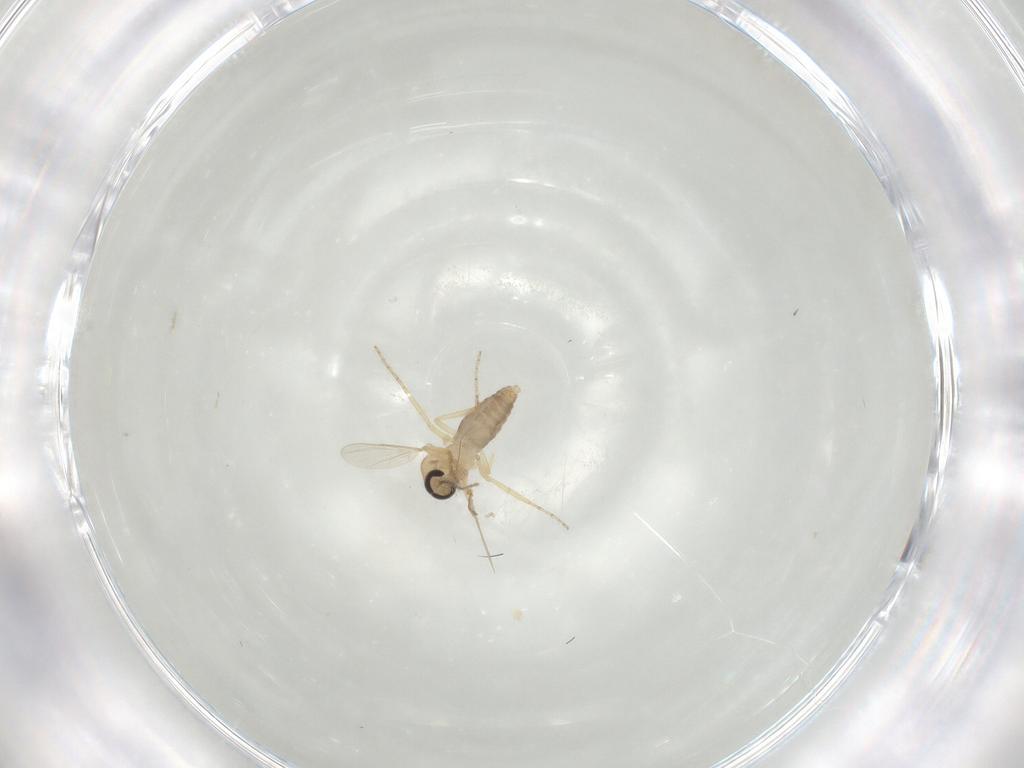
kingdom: Animalia
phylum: Arthropoda
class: Insecta
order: Diptera
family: Ceratopogonidae
